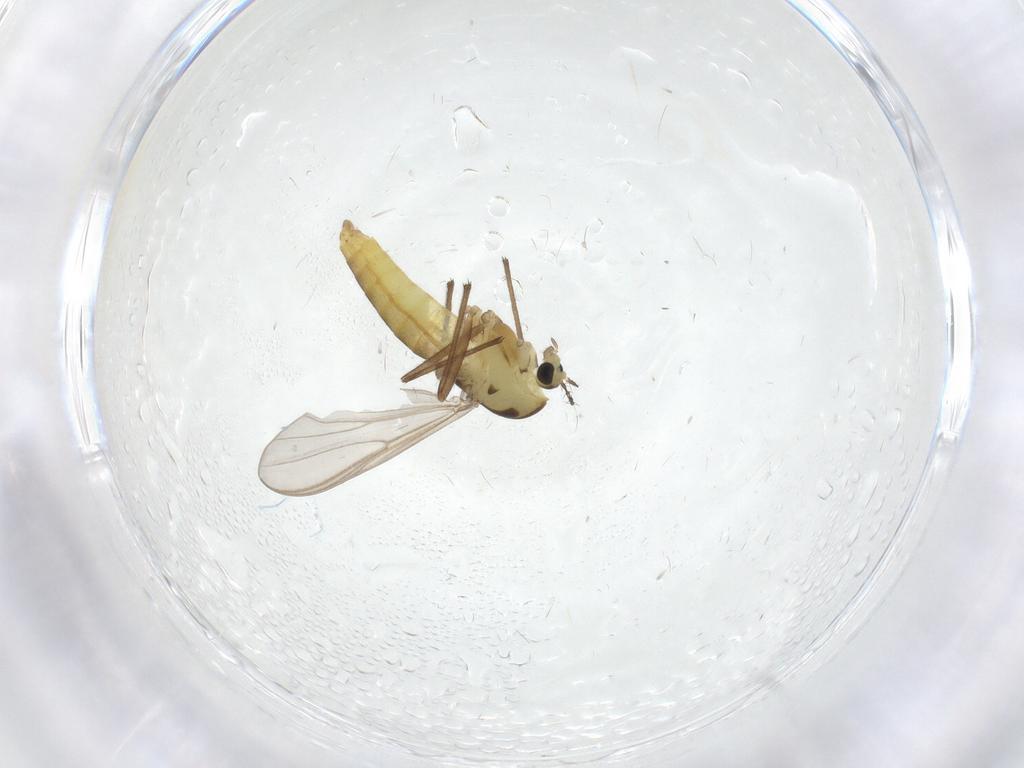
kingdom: Animalia
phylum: Arthropoda
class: Insecta
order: Diptera
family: Chironomidae
